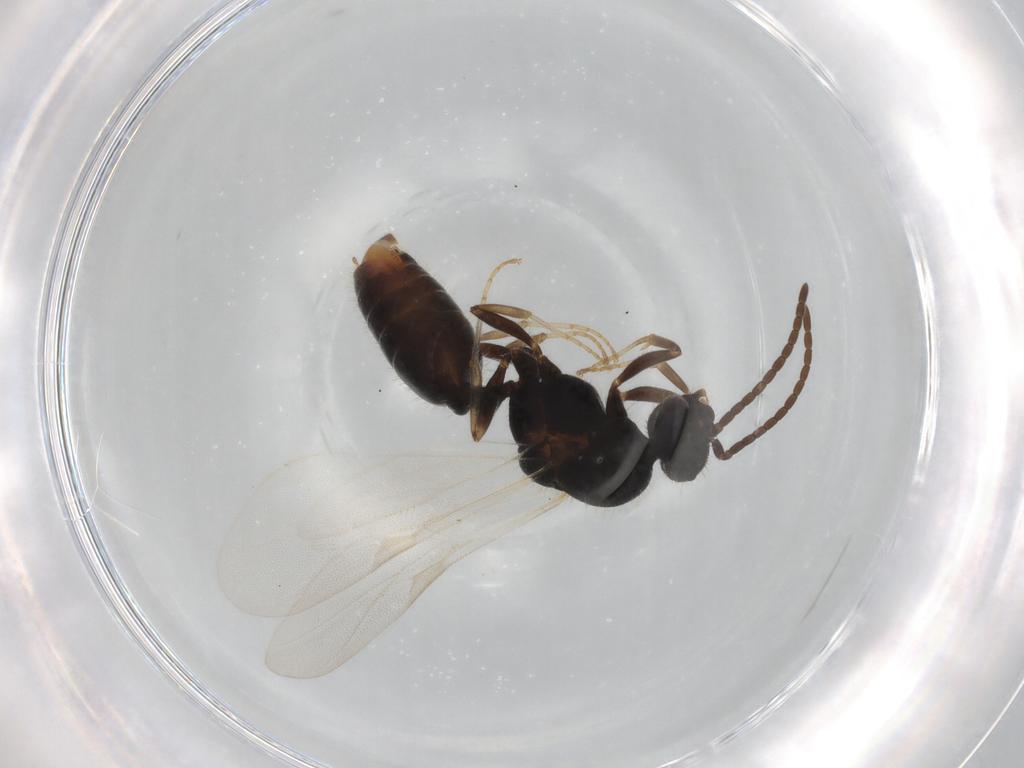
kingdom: Animalia
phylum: Arthropoda
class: Insecta
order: Hymenoptera
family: Formicidae
